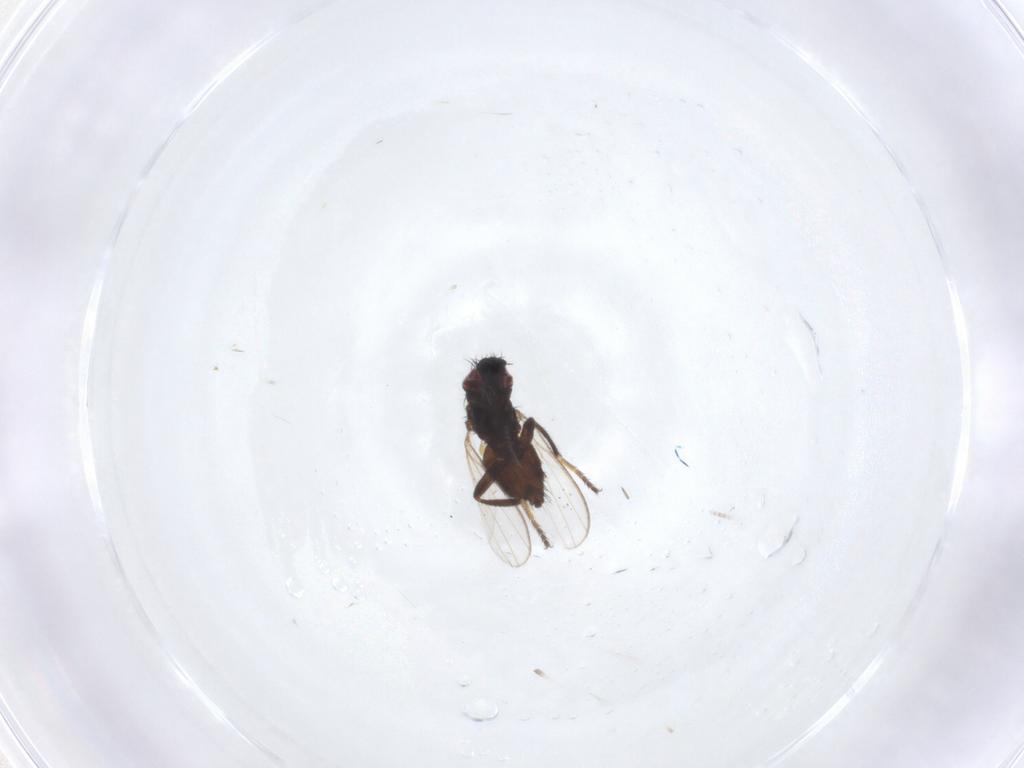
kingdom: Animalia
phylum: Arthropoda
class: Insecta
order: Diptera
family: Milichiidae
